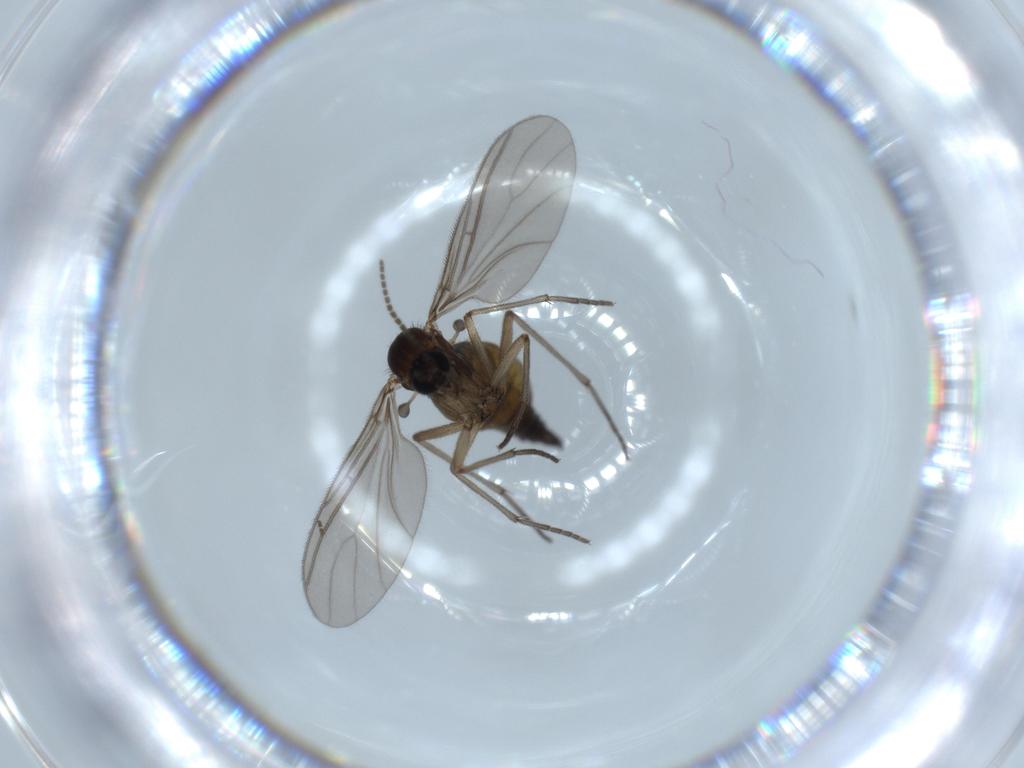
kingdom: Animalia
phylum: Arthropoda
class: Insecta
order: Diptera
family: Sciaridae
